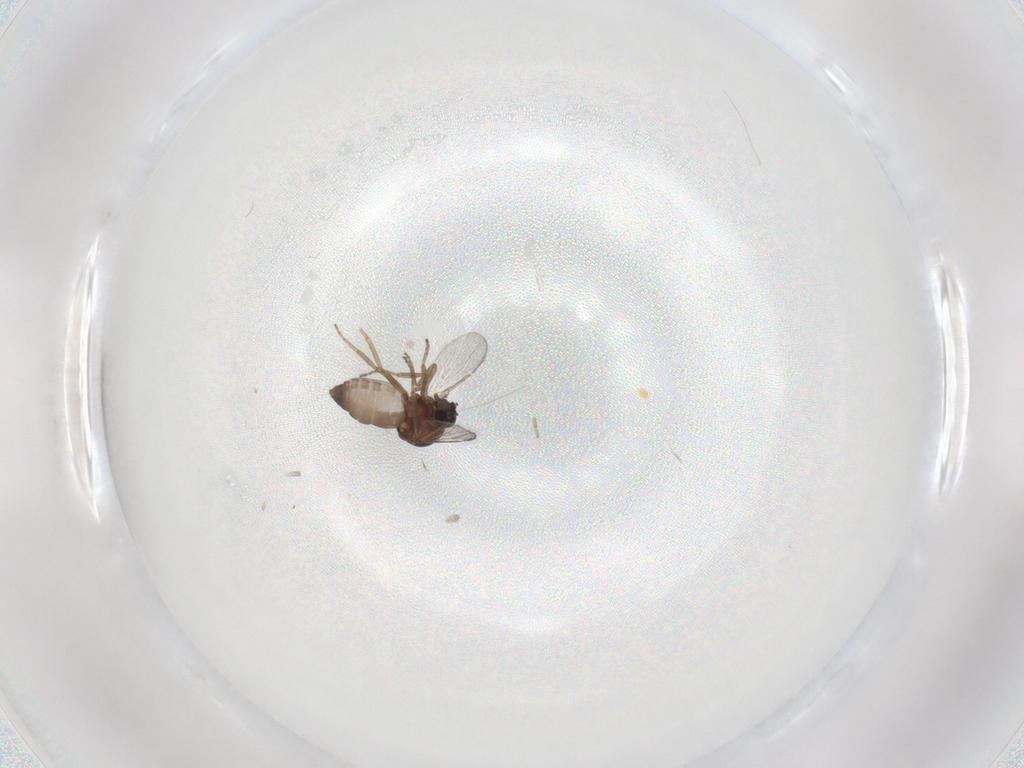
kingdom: Animalia
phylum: Arthropoda
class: Insecta
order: Diptera
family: Ceratopogonidae
